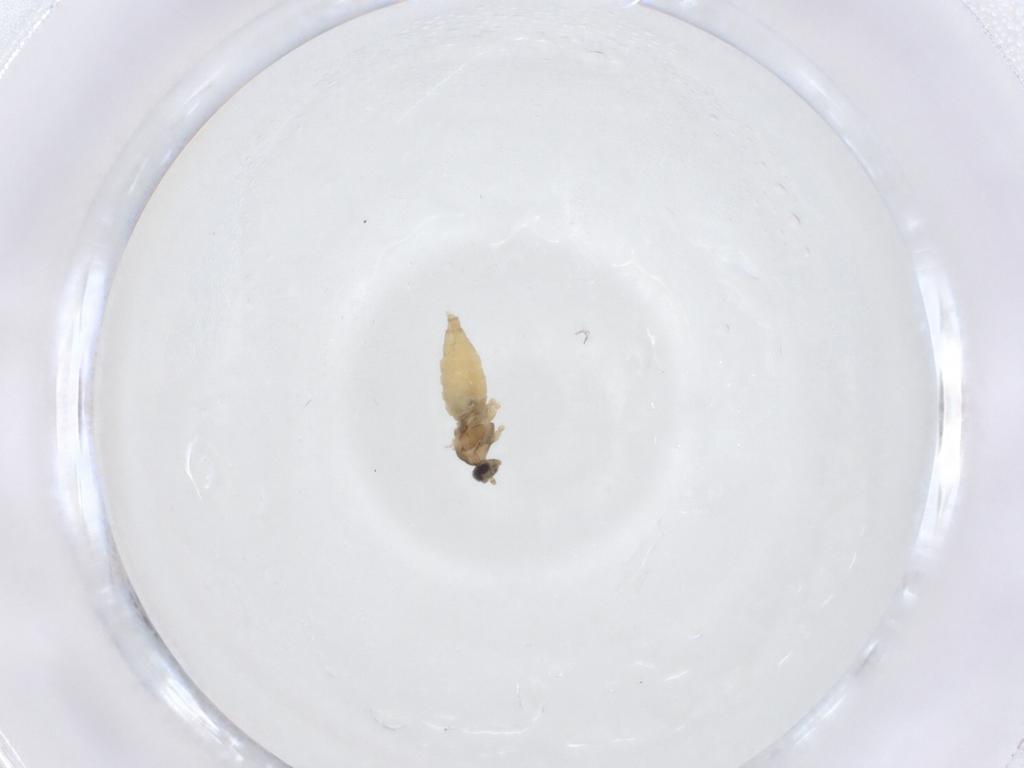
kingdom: Animalia
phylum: Arthropoda
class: Insecta
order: Diptera
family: Cecidomyiidae
